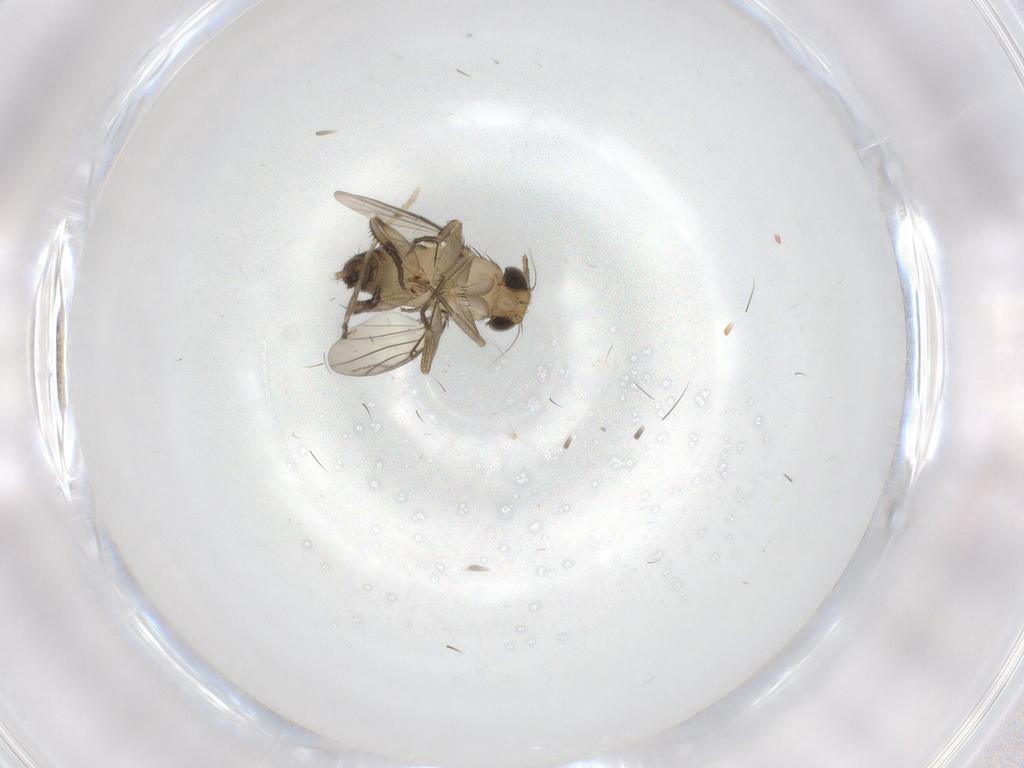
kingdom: Animalia
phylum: Arthropoda
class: Insecta
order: Diptera
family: Phoridae
